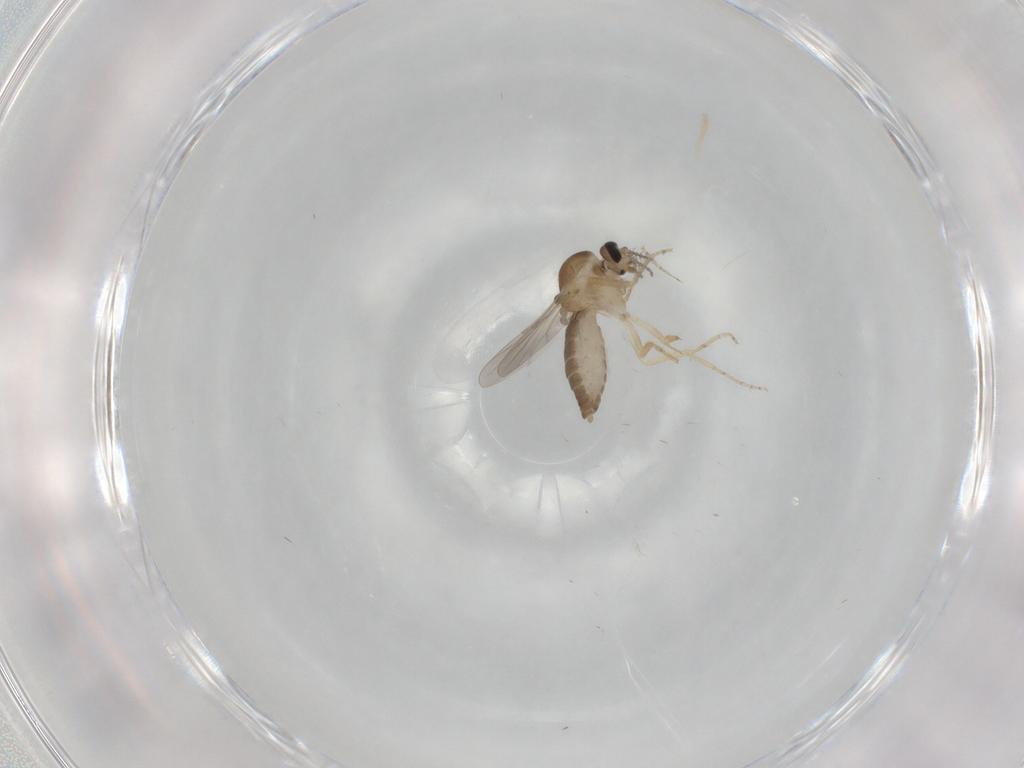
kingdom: Animalia
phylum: Arthropoda
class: Insecta
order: Diptera
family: Ceratopogonidae
